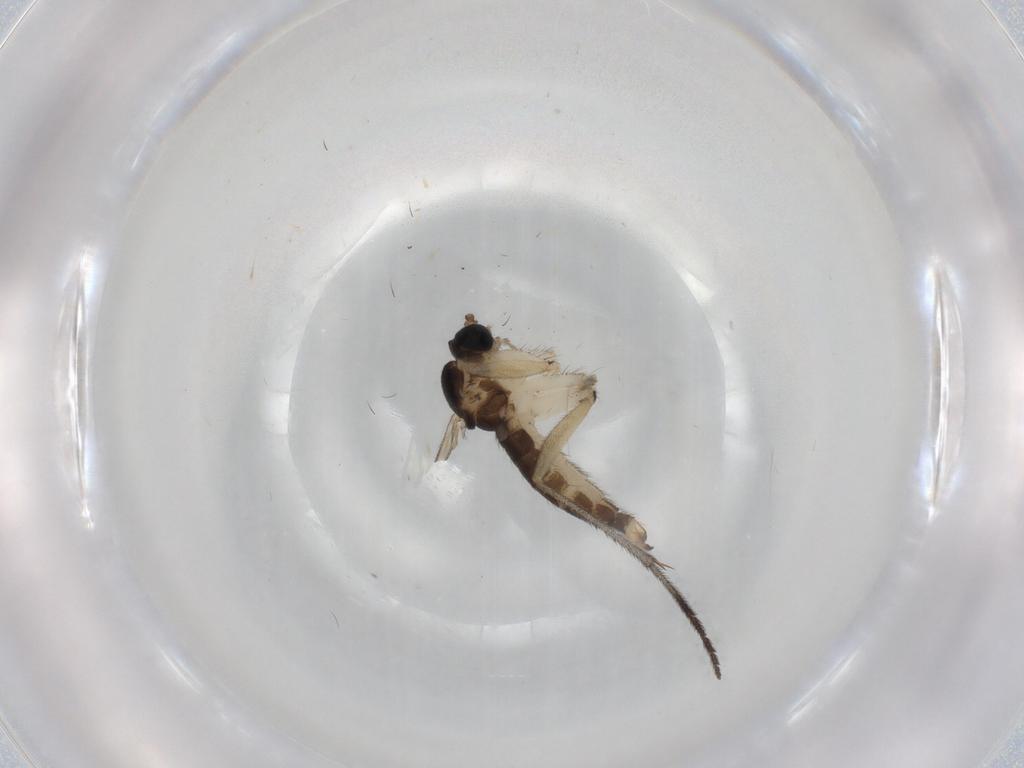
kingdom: Animalia
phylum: Arthropoda
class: Insecta
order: Diptera
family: Sciaridae
